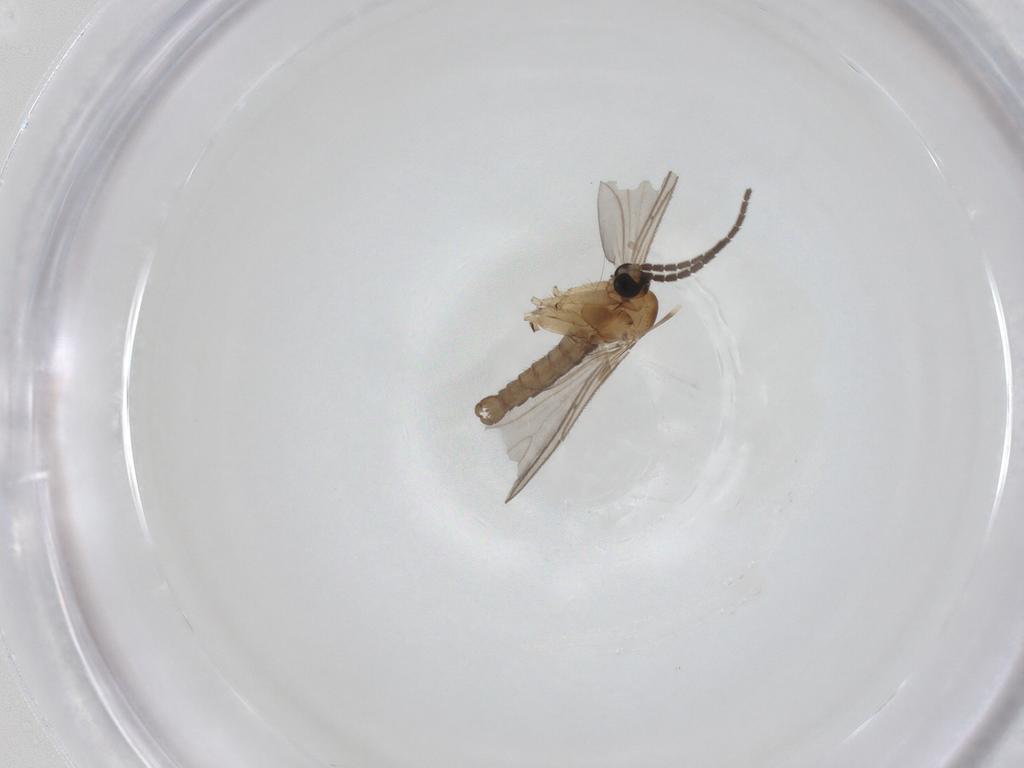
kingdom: Animalia
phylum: Arthropoda
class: Insecta
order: Diptera
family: Sciaridae
